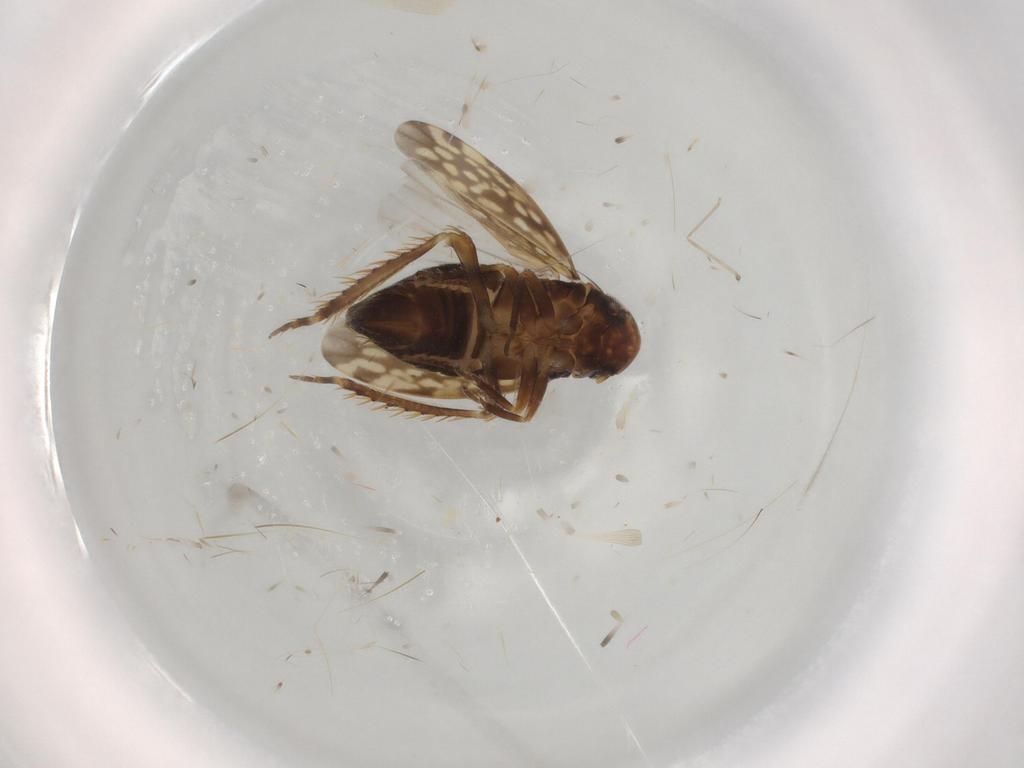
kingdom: Animalia
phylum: Arthropoda
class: Insecta
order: Hemiptera
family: Cicadellidae
